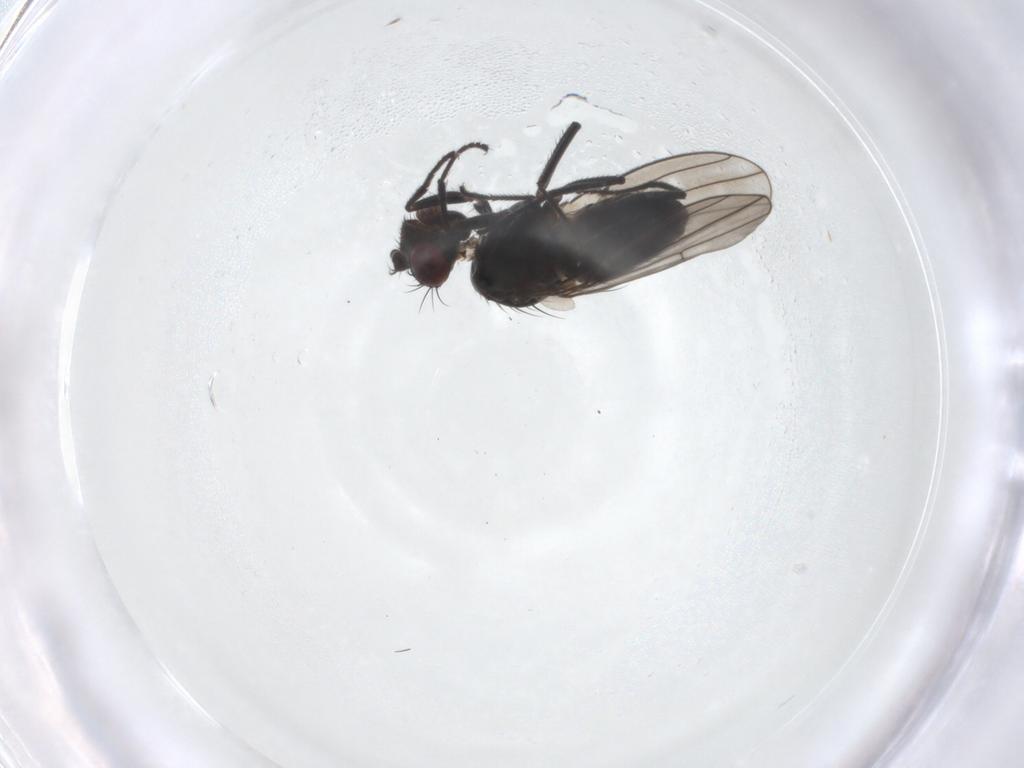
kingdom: Animalia
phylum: Arthropoda
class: Insecta
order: Diptera
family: Ephydridae
